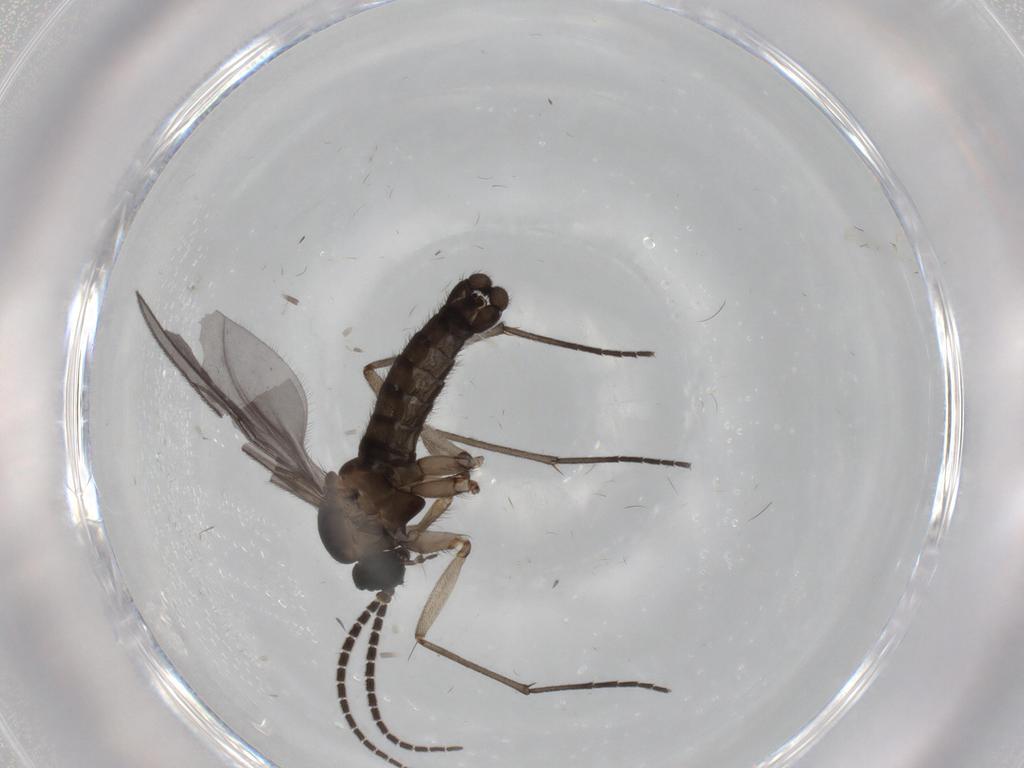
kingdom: Animalia
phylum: Arthropoda
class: Insecta
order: Diptera
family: Sciaridae
